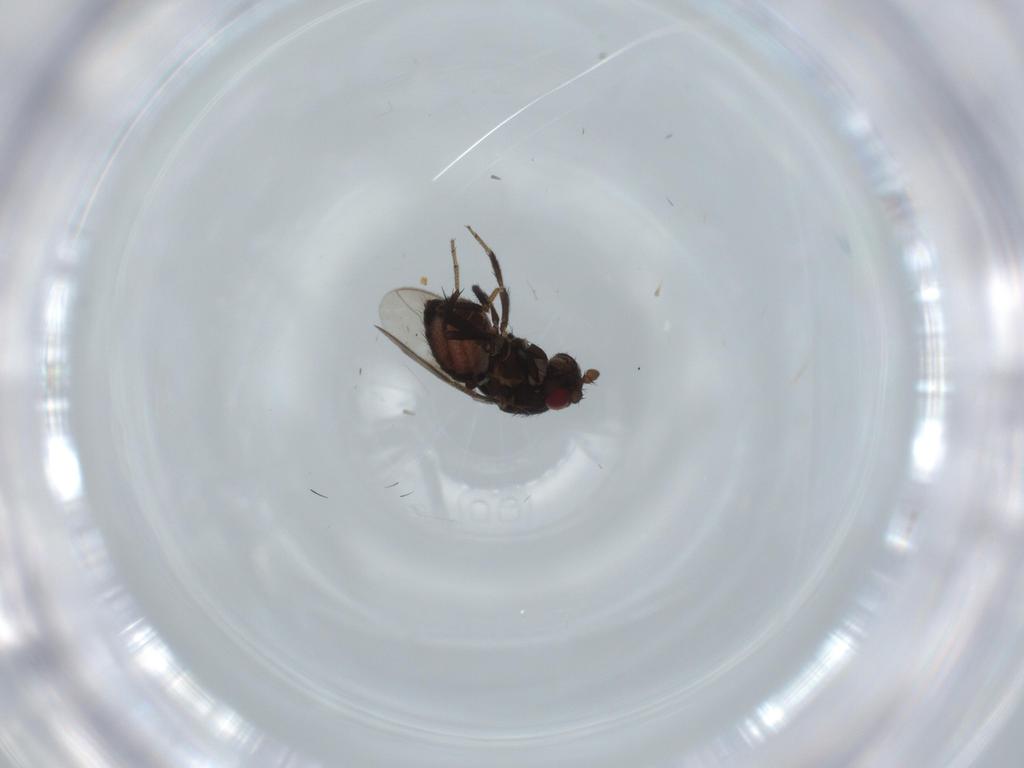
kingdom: Animalia
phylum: Arthropoda
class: Insecta
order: Diptera
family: Sphaeroceridae
